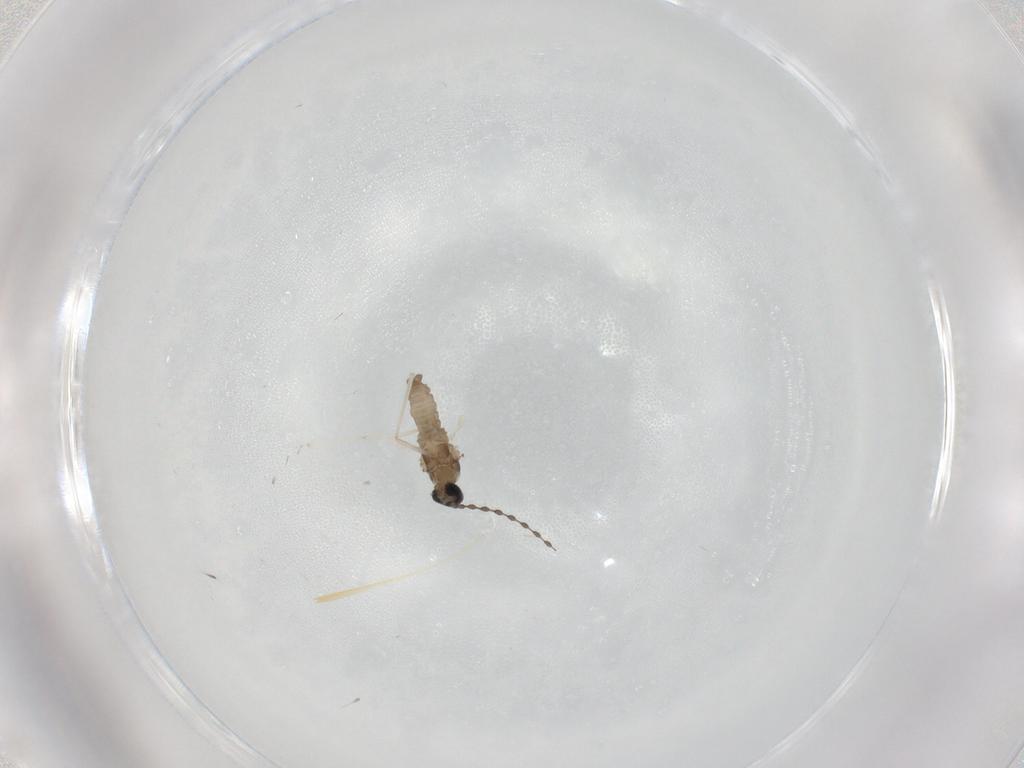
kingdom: Animalia
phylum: Arthropoda
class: Insecta
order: Diptera
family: Cecidomyiidae
